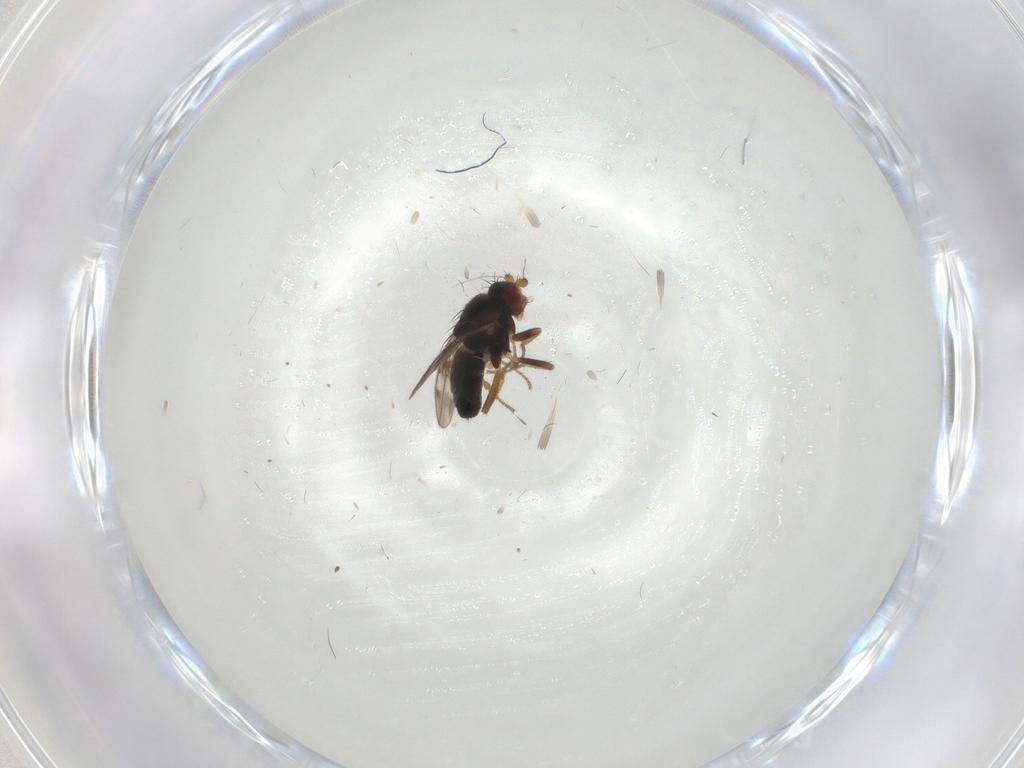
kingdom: Animalia
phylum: Arthropoda
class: Insecta
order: Diptera
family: Sphaeroceridae
